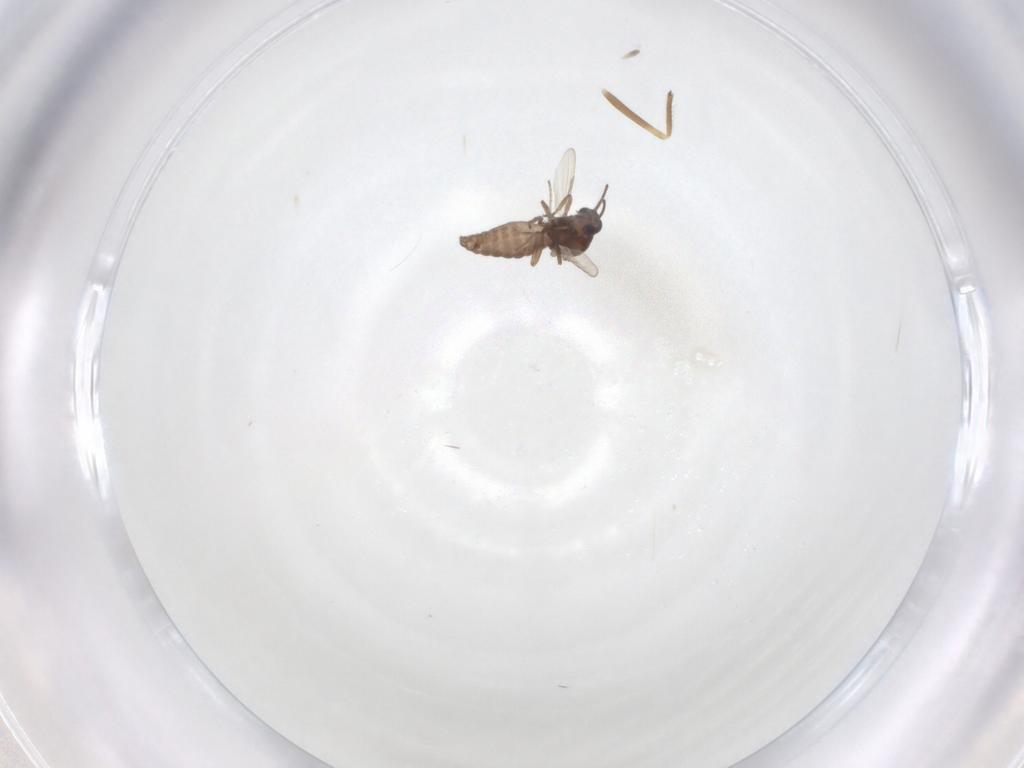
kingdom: Animalia
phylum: Arthropoda
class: Insecta
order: Diptera
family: Ceratopogonidae
